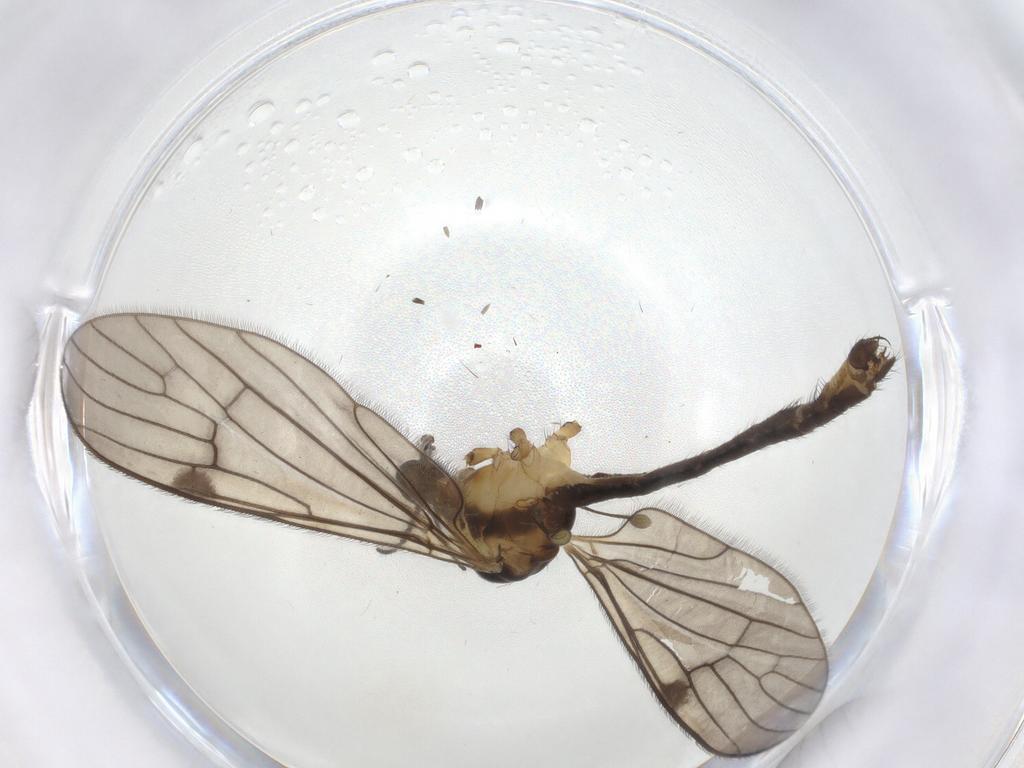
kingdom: Animalia
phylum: Arthropoda
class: Insecta
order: Diptera
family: Limoniidae
